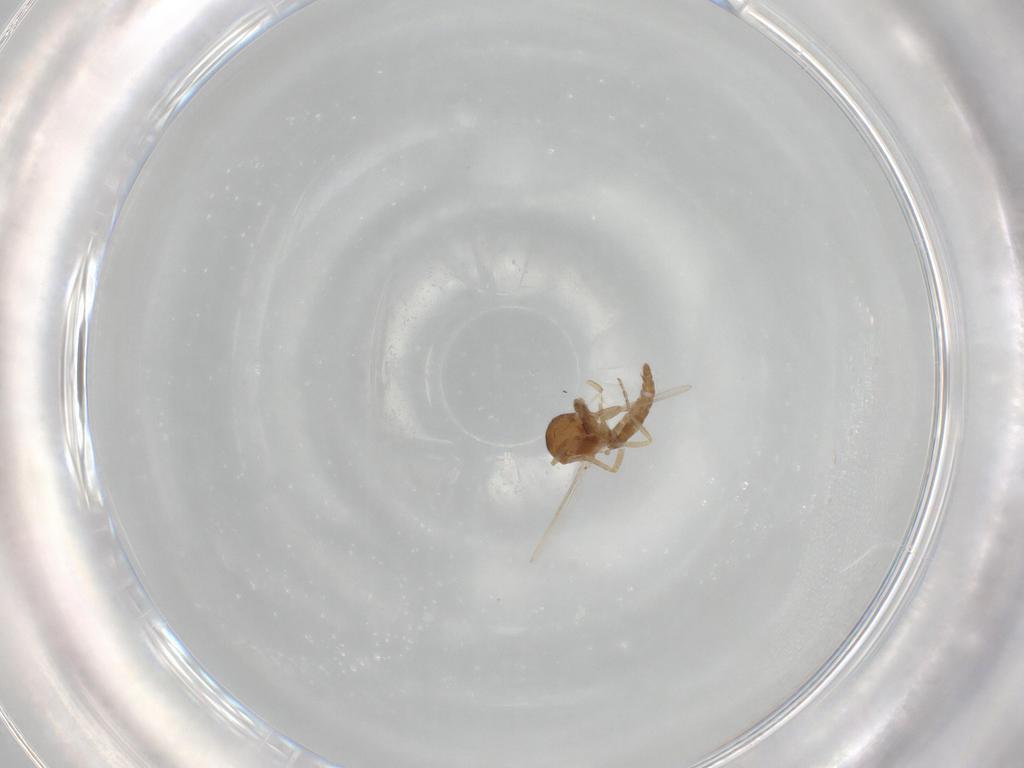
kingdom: Animalia
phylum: Arthropoda
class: Insecta
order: Diptera
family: Ceratopogonidae
